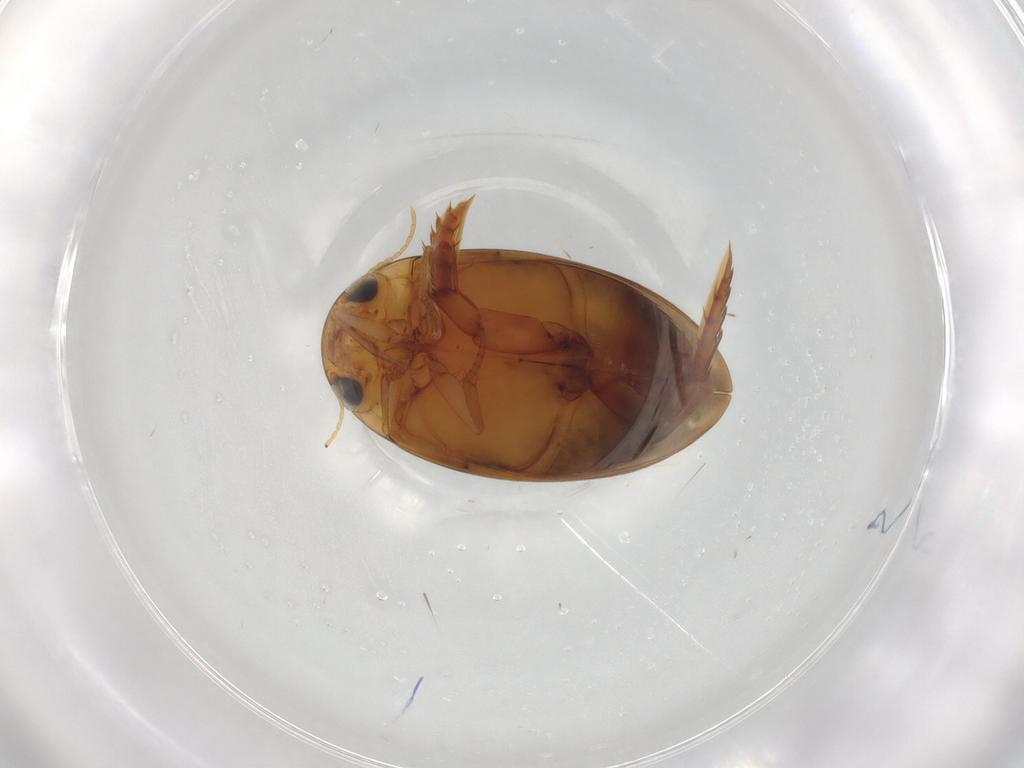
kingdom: Animalia
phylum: Arthropoda
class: Insecta
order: Coleoptera
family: Dytiscidae
